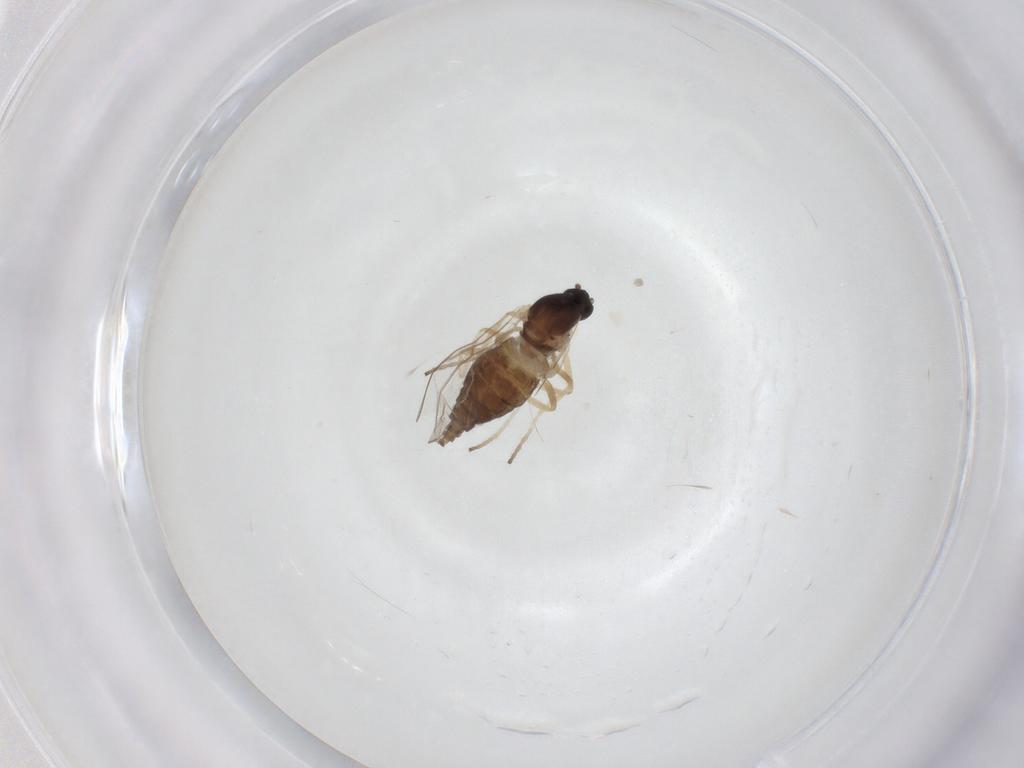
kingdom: Animalia
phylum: Arthropoda
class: Insecta
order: Diptera
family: Cecidomyiidae
